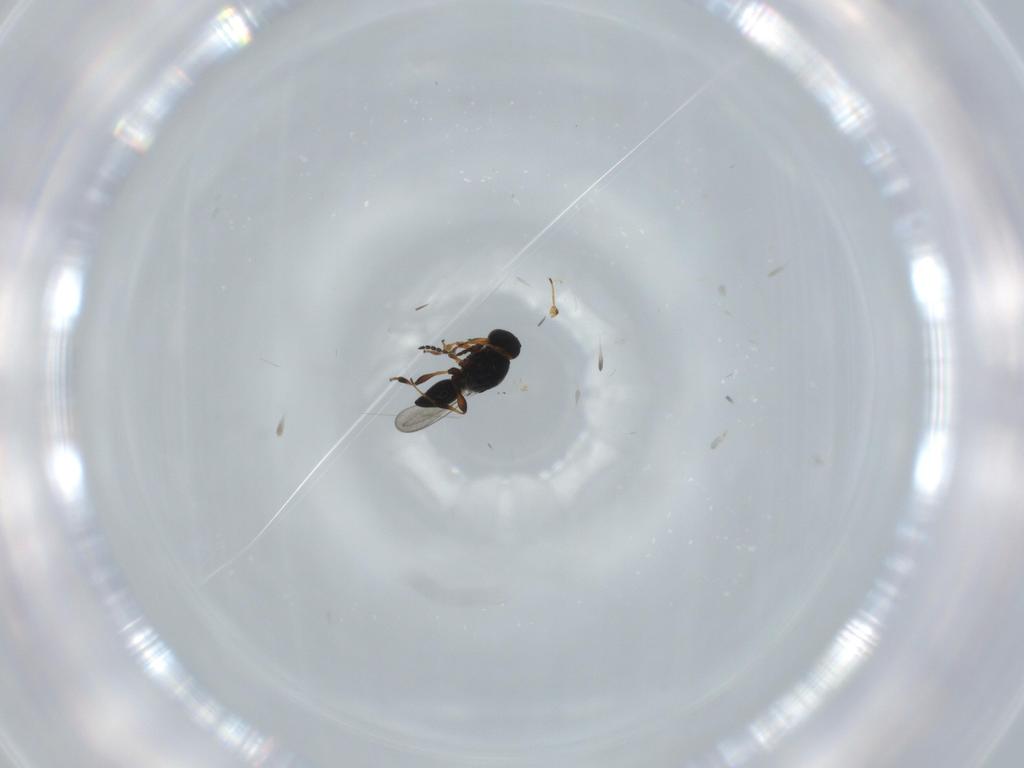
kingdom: Animalia
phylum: Arthropoda
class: Insecta
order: Hymenoptera
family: Platygastridae
